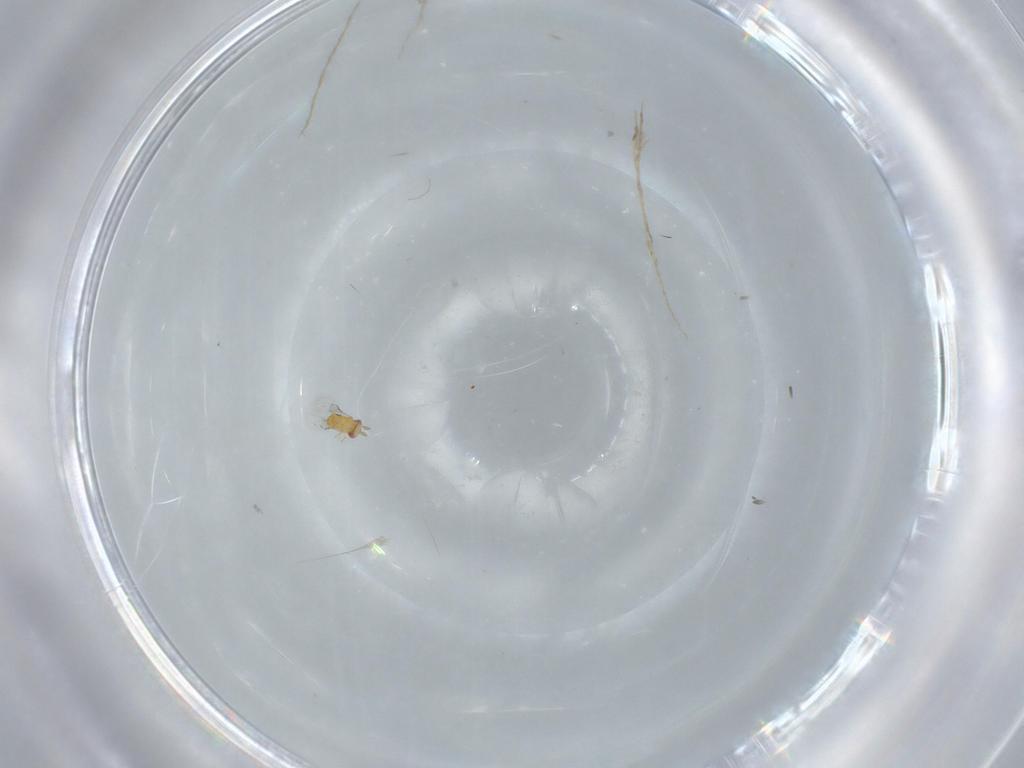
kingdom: Animalia
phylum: Arthropoda
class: Insecta
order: Hymenoptera
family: Trichogrammatidae
